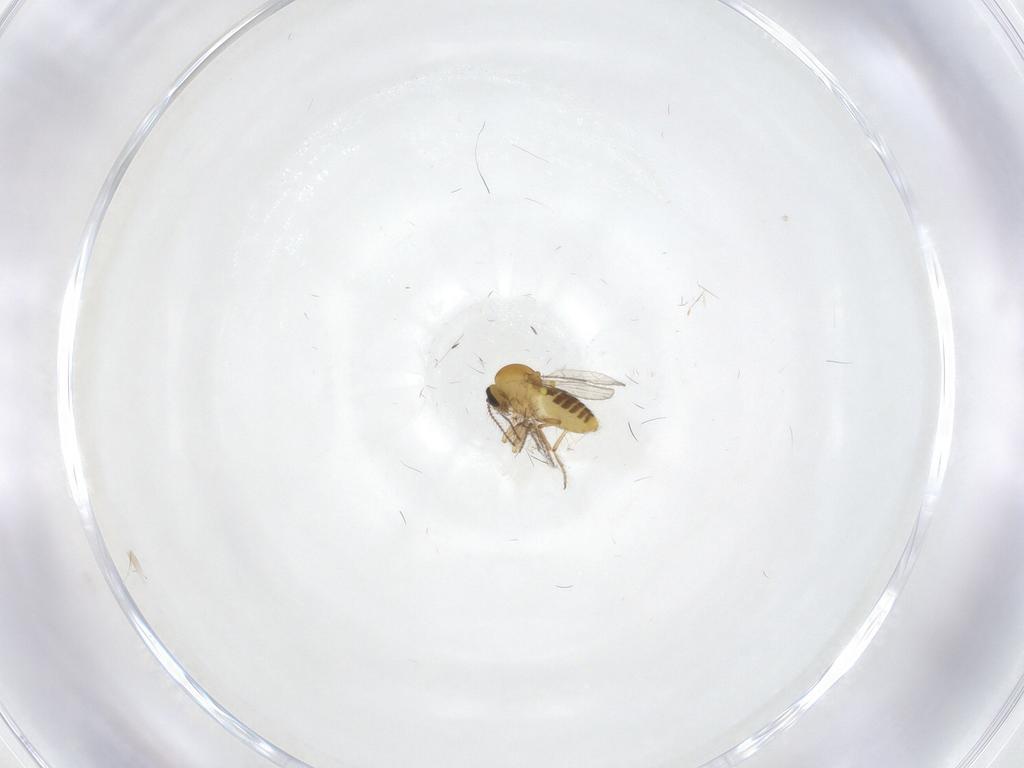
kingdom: Animalia
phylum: Arthropoda
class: Insecta
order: Diptera
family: Ceratopogonidae
